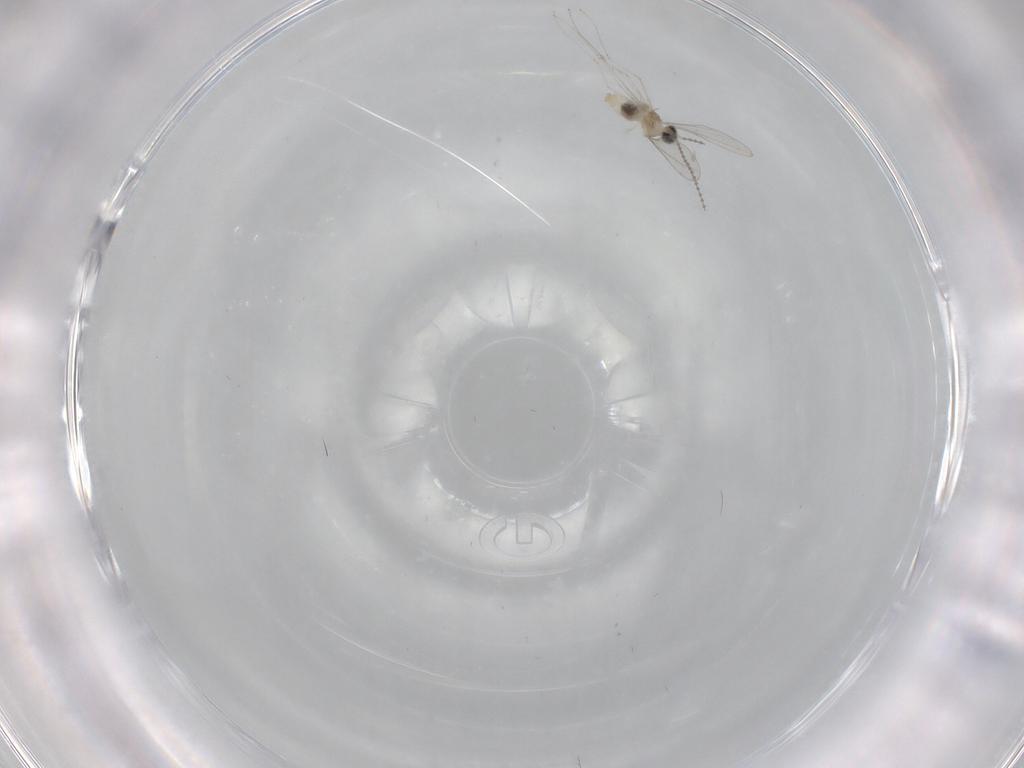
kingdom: Animalia
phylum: Arthropoda
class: Insecta
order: Diptera
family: Cecidomyiidae
